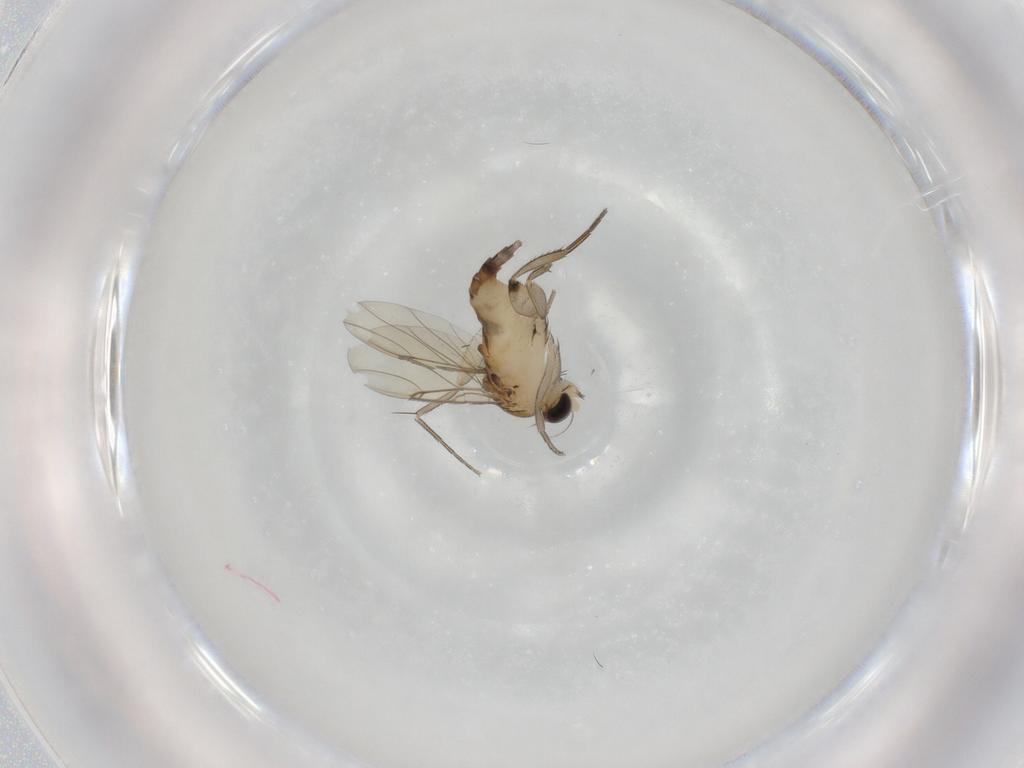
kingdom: Animalia
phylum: Arthropoda
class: Insecta
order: Diptera
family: Phoridae
